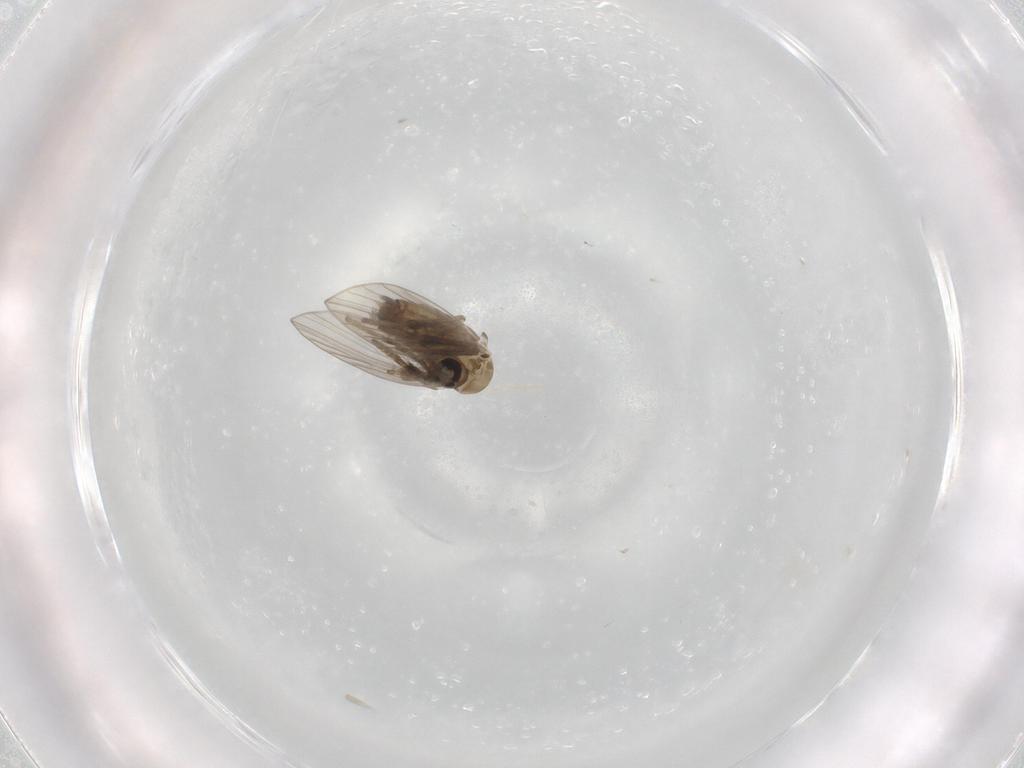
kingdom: Animalia
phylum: Arthropoda
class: Insecta
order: Diptera
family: Psychodidae
